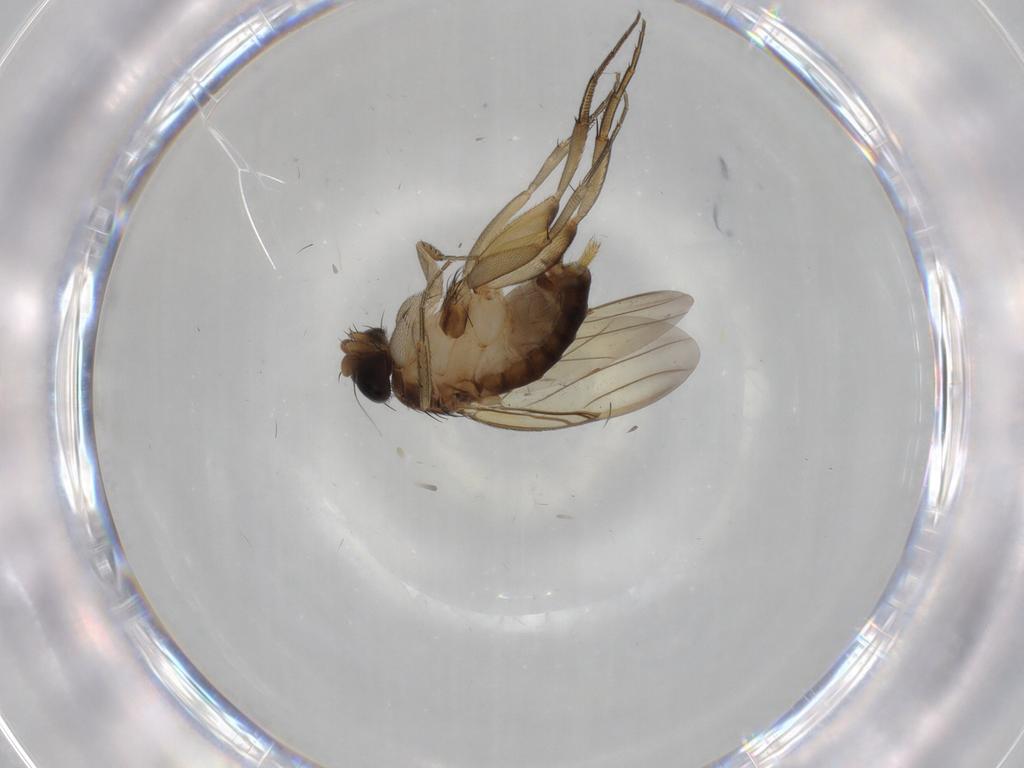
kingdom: Animalia
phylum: Arthropoda
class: Insecta
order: Diptera
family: Phoridae
